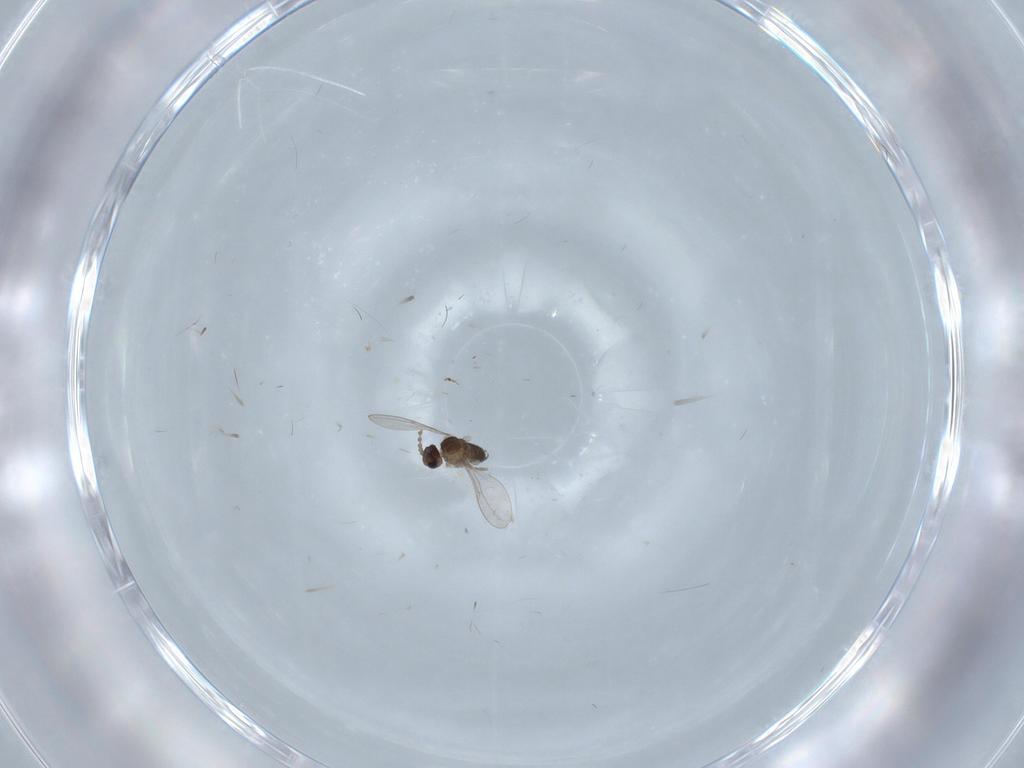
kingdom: Animalia
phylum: Arthropoda
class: Insecta
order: Diptera
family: Cecidomyiidae
